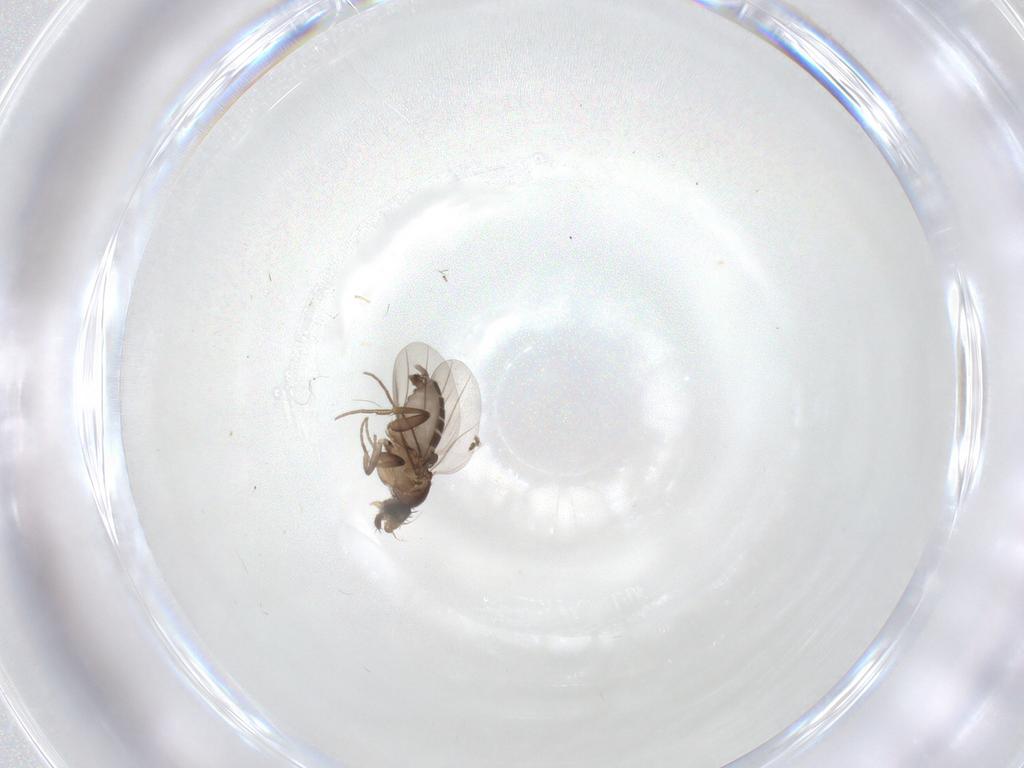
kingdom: Animalia
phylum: Arthropoda
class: Insecta
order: Diptera
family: Phoridae
